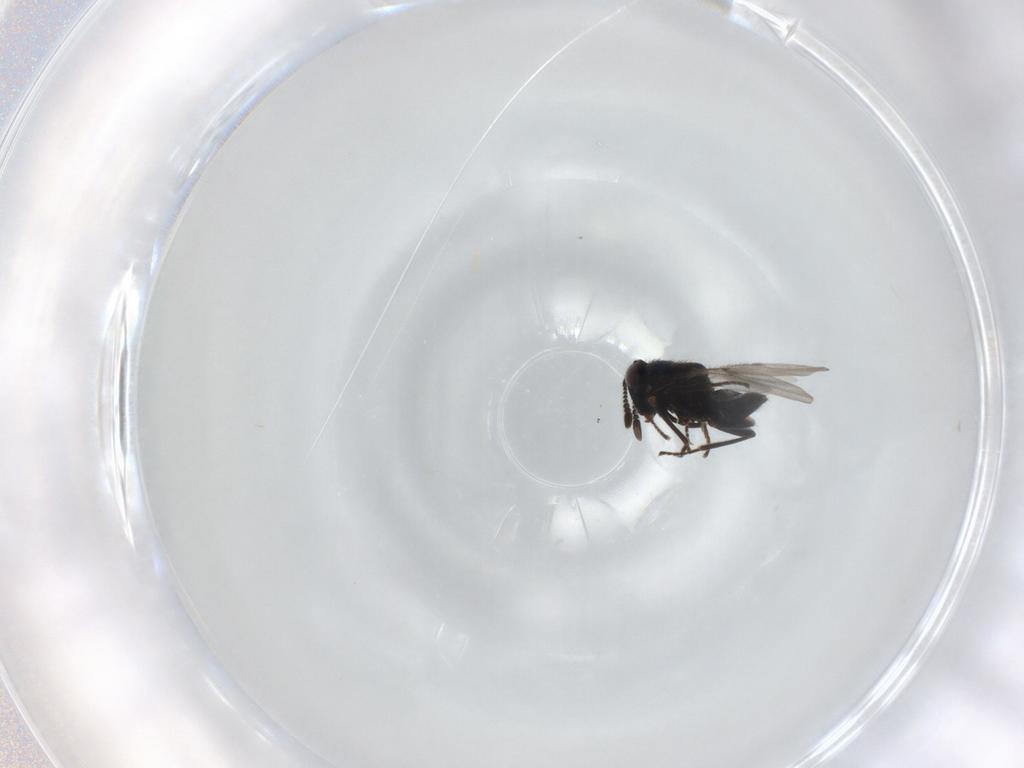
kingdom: Animalia
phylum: Arthropoda
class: Insecta
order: Hymenoptera
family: Encyrtidae
